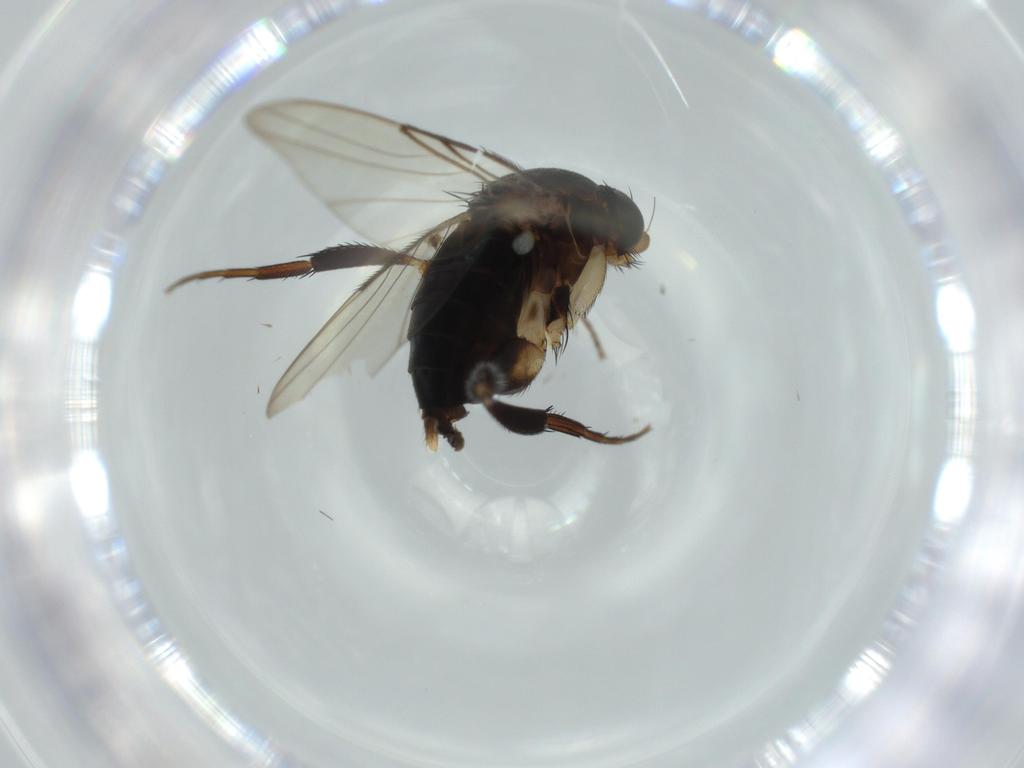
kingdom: Animalia
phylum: Arthropoda
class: Insecta
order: Diptera
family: Phoridae
